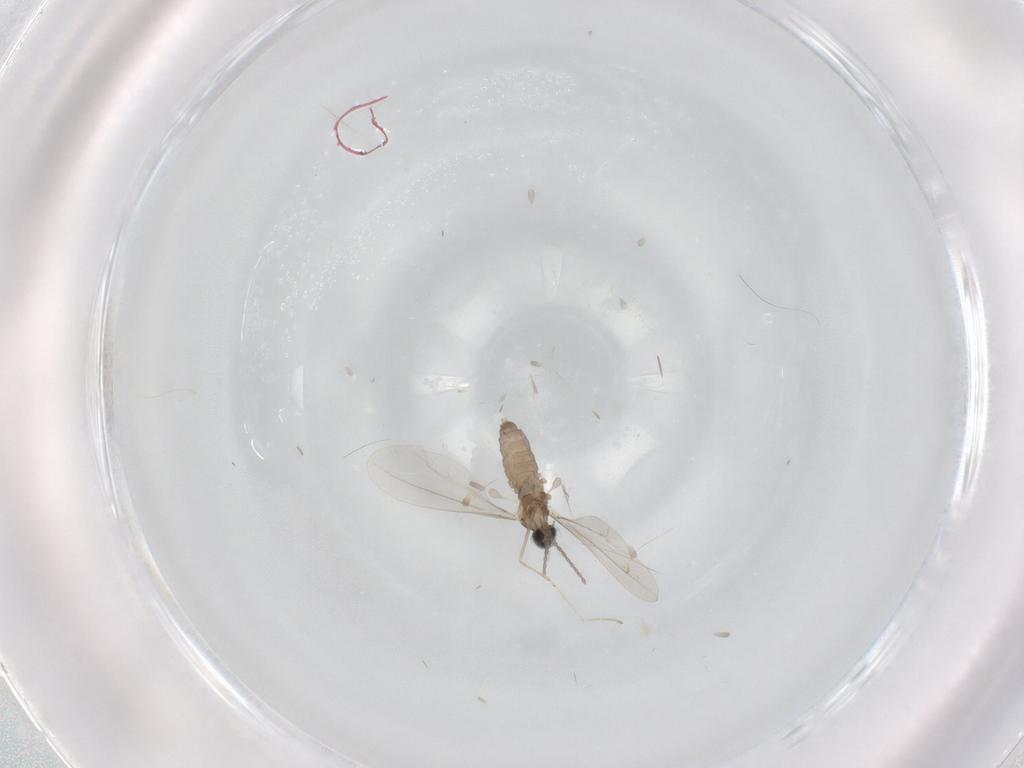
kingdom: Animalia
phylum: Arthropoda
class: Insecta
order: Diptera
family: Cecidomyiidae
